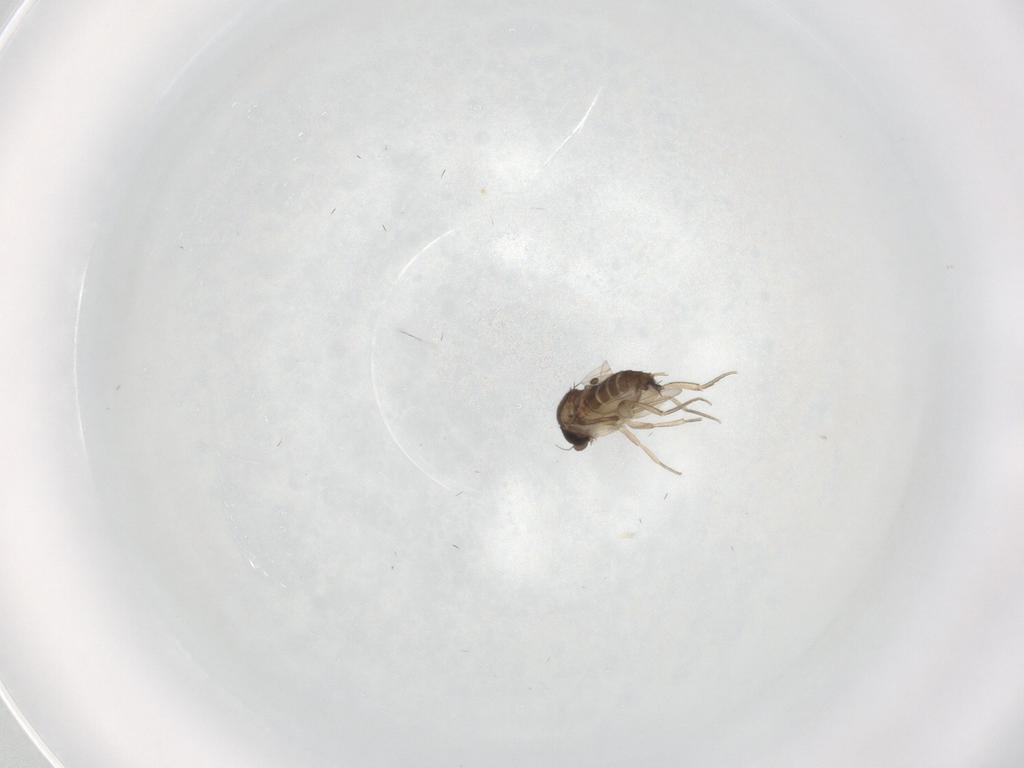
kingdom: Animalia
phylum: Arthropoda
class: Insecta
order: Diptera
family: Phoridae
